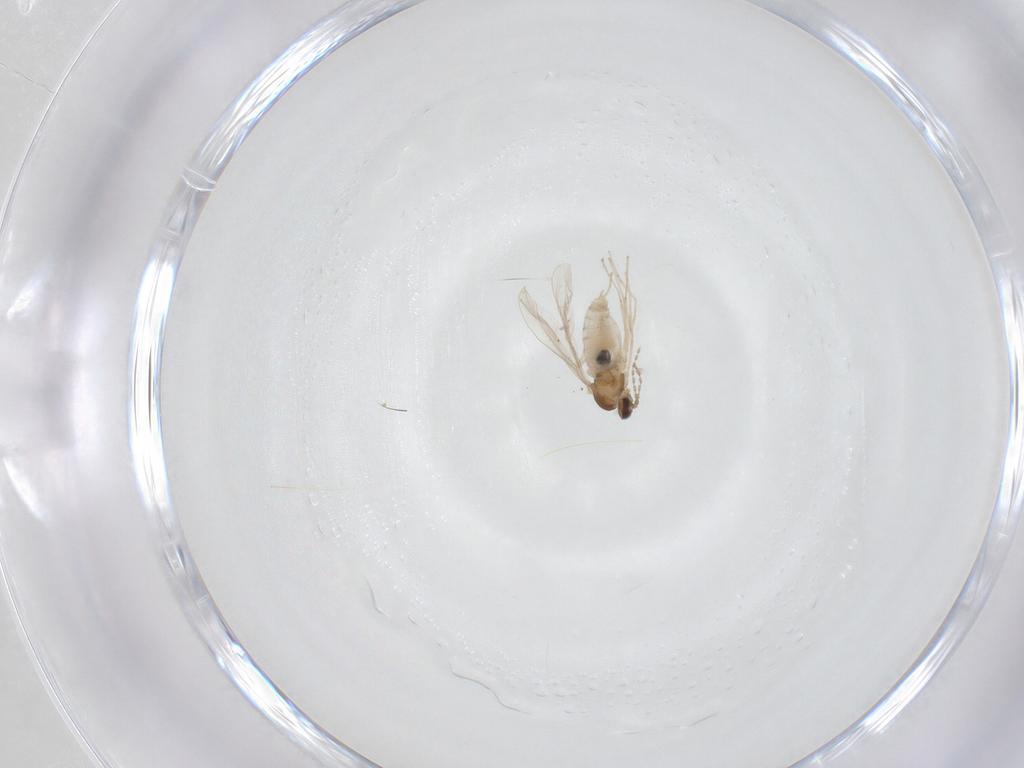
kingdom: Animalia
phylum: Arthropoda
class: Insecta
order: Diptera
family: Cecidomyiidae
